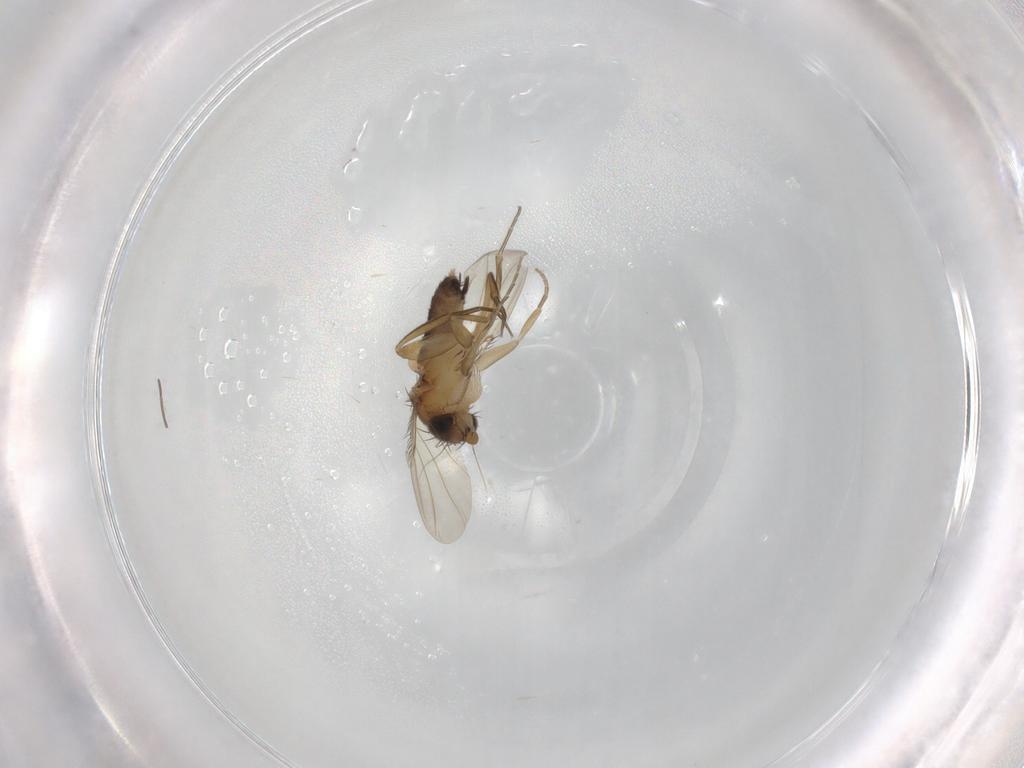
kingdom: Animalia
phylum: Arthropoda
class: Insecta
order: Diptera
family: Phoridae
